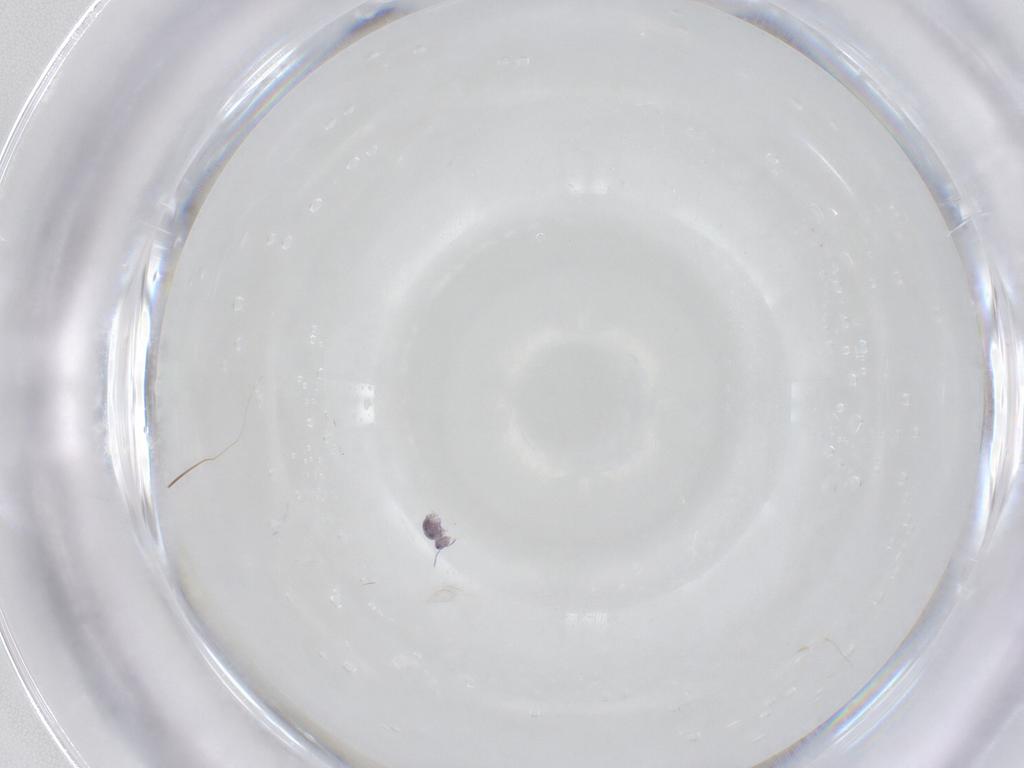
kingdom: Animalia
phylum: Arthropoda
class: Collembola
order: Symphypleona
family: Sminthurididae
